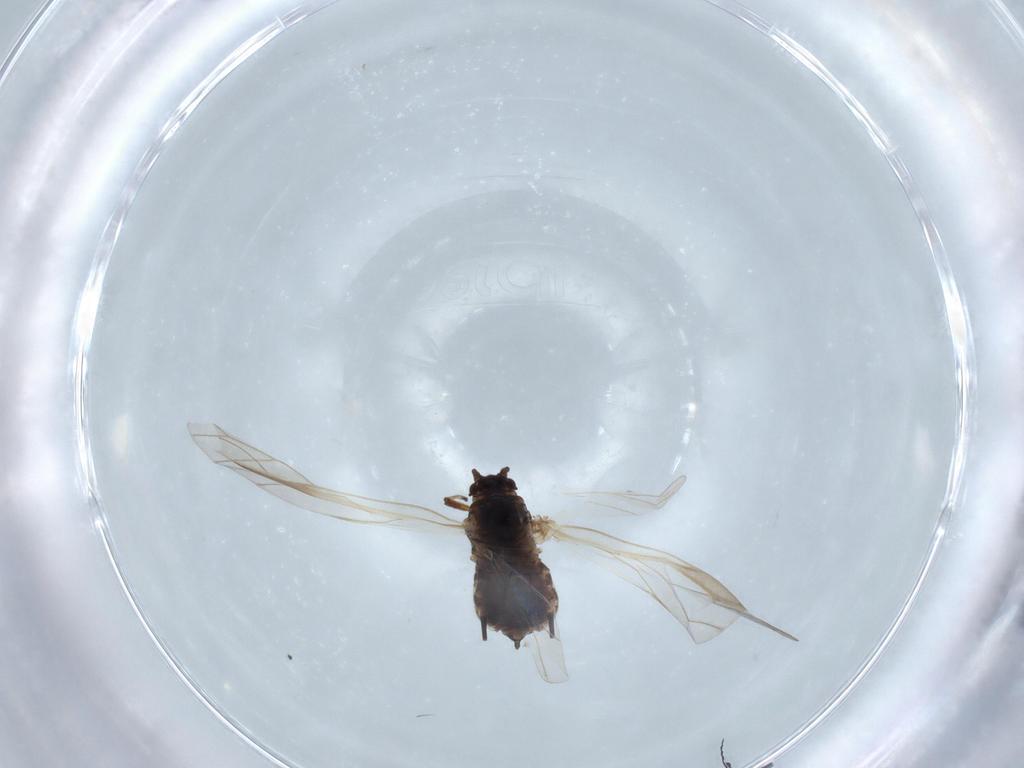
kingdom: Animalia
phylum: Arthropoda
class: Insecta
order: Hemiptera
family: Aphididae
